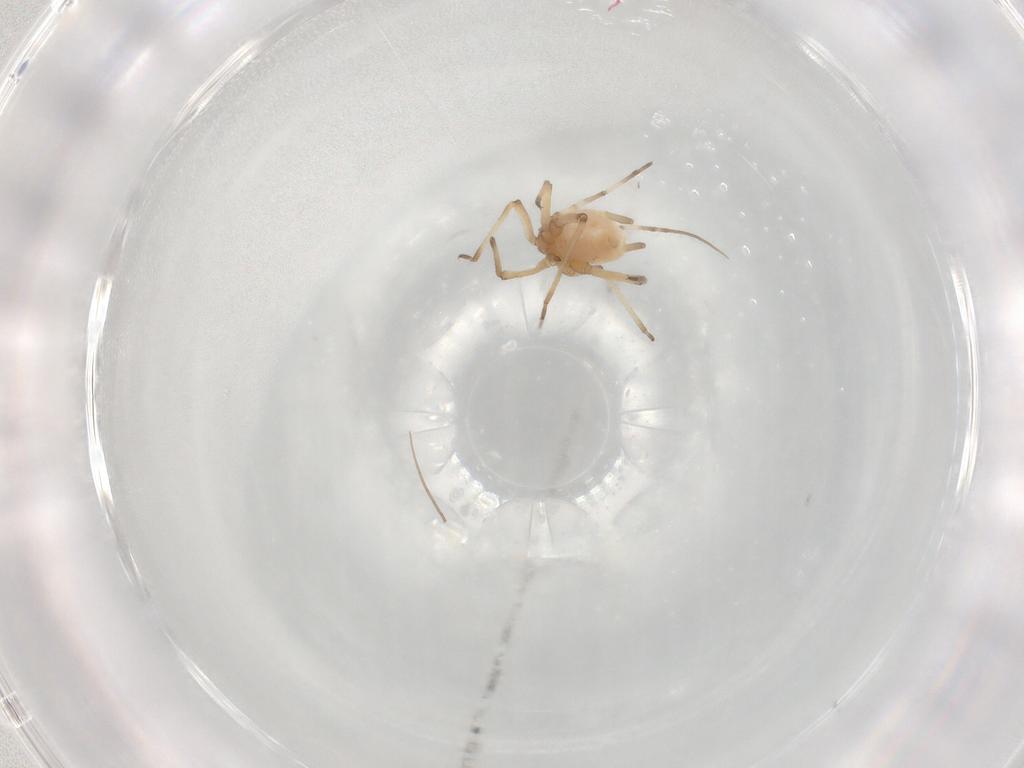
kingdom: Animalia
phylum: Arthropoda
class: Insecta
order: Hemiptera
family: Aphididae
